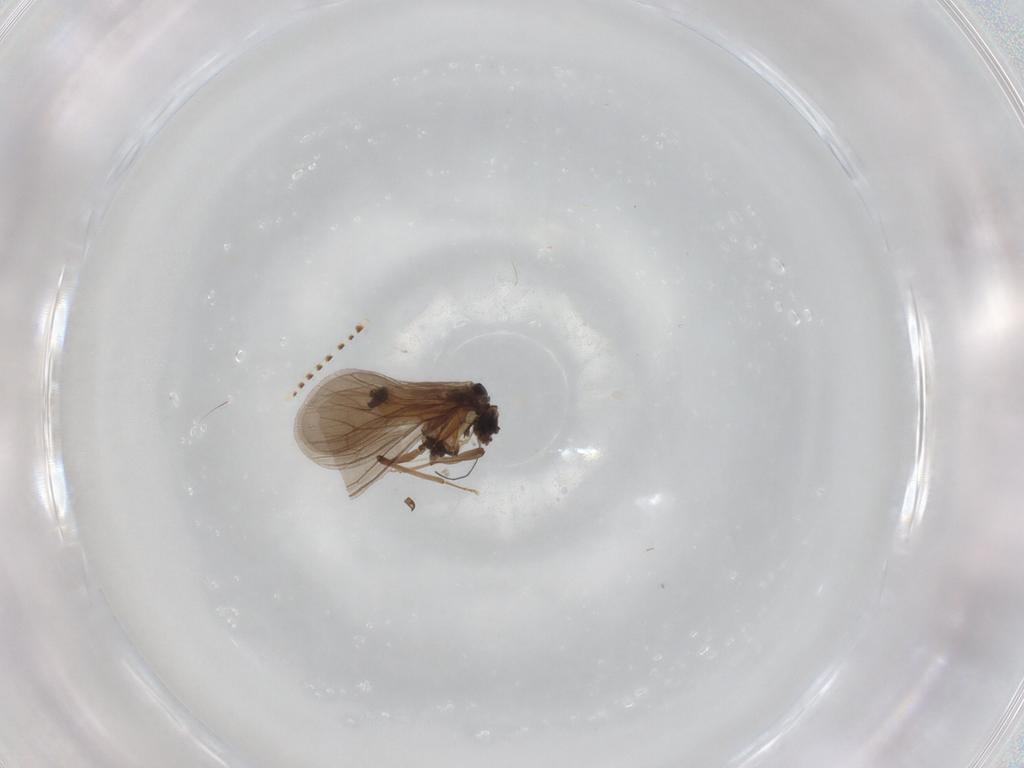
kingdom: Animalia
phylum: Arthropoda
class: Insecta
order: Neuroptera
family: Coniopterygidae
